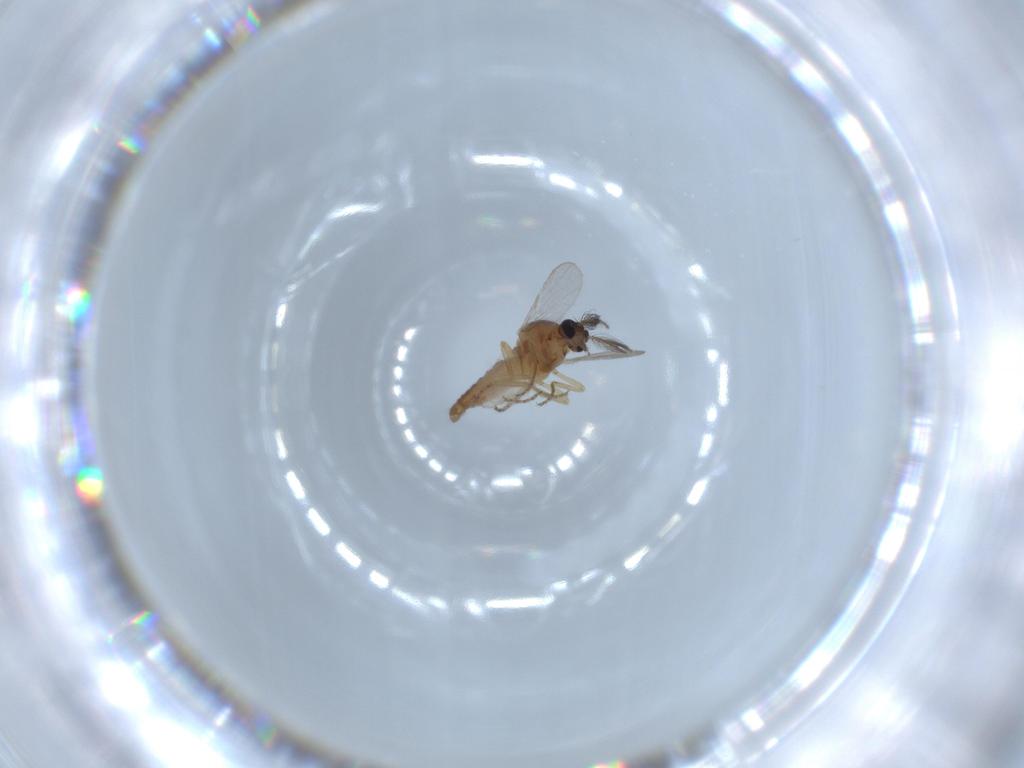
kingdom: Animalia
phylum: Arthropoda
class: Insecta
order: Diptera
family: Ceratopogonidae
